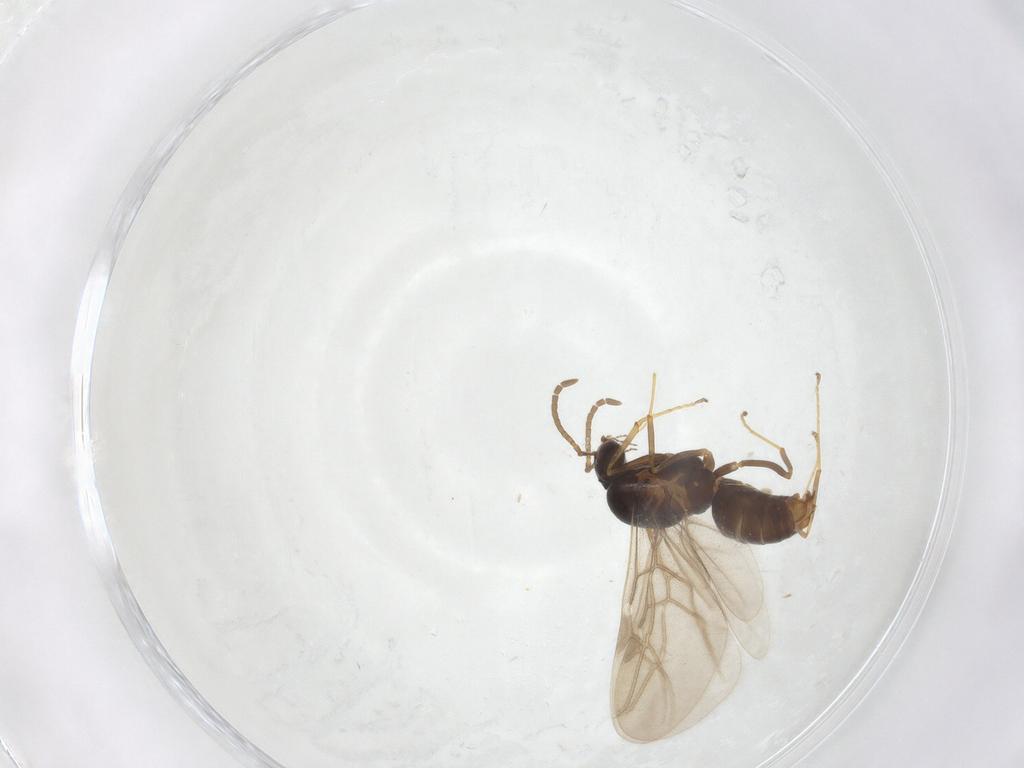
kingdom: Animalia
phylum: Arthropoda
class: Insecta
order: Hymenoptera
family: Formicidae
